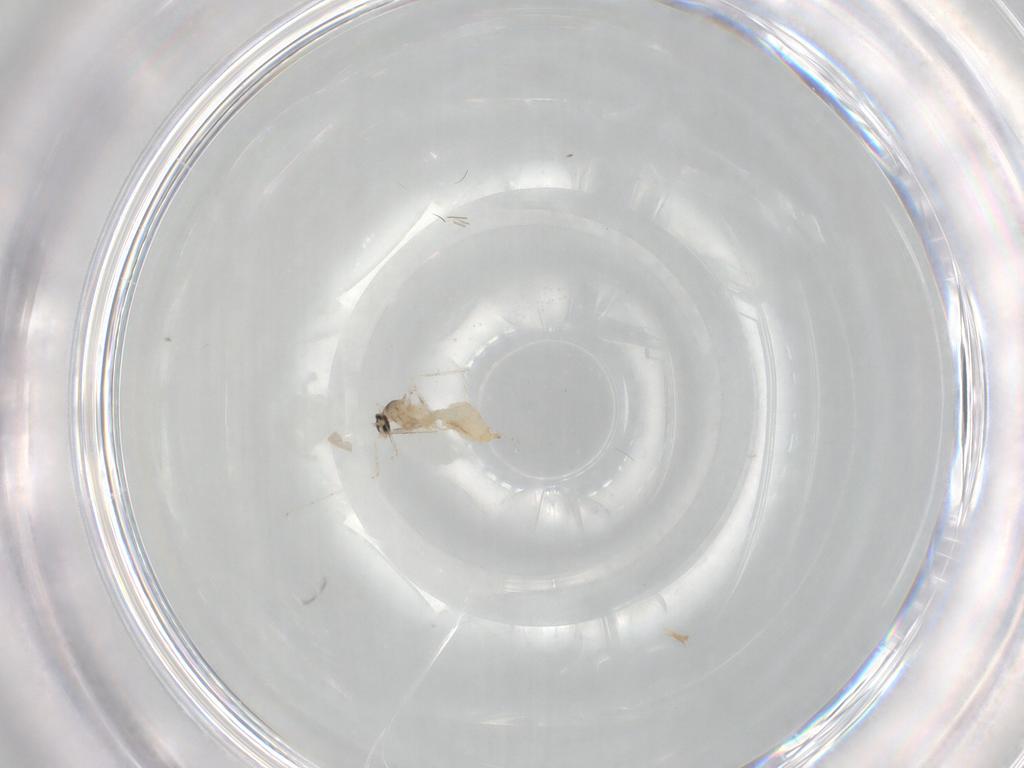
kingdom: Animalia
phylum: Arthropoda
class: Insecta
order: Diptera
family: Cecidomyiidae
